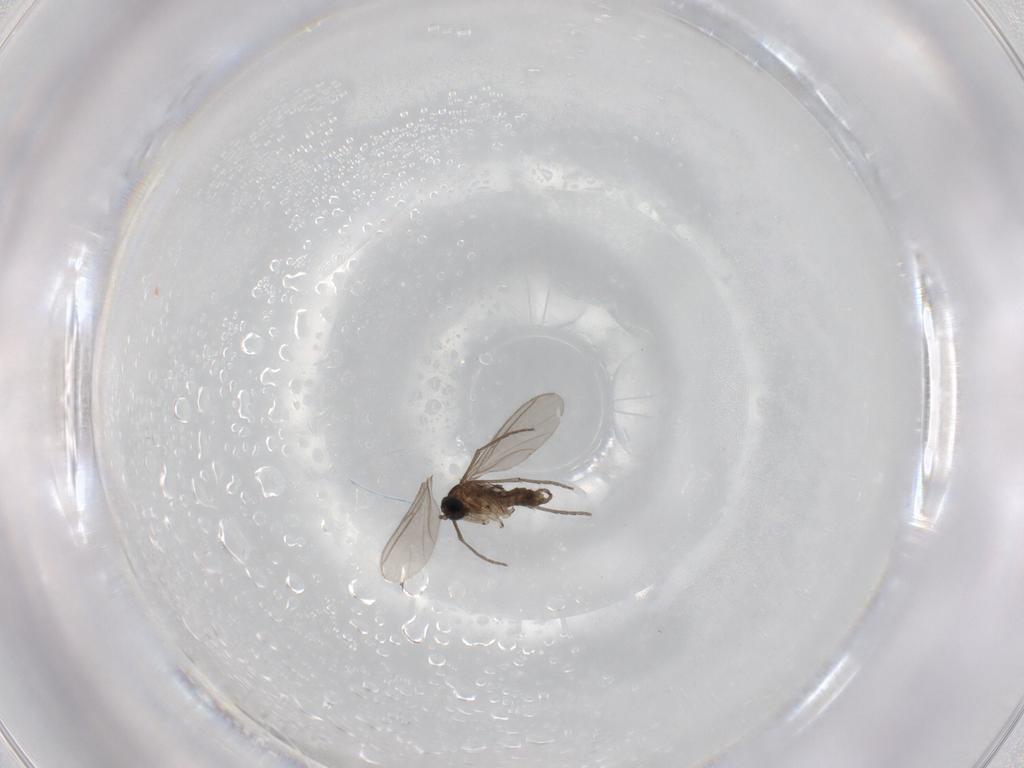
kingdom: Animalia
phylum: Arthropoda
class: Insecta
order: Diptera
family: Sciaridae
